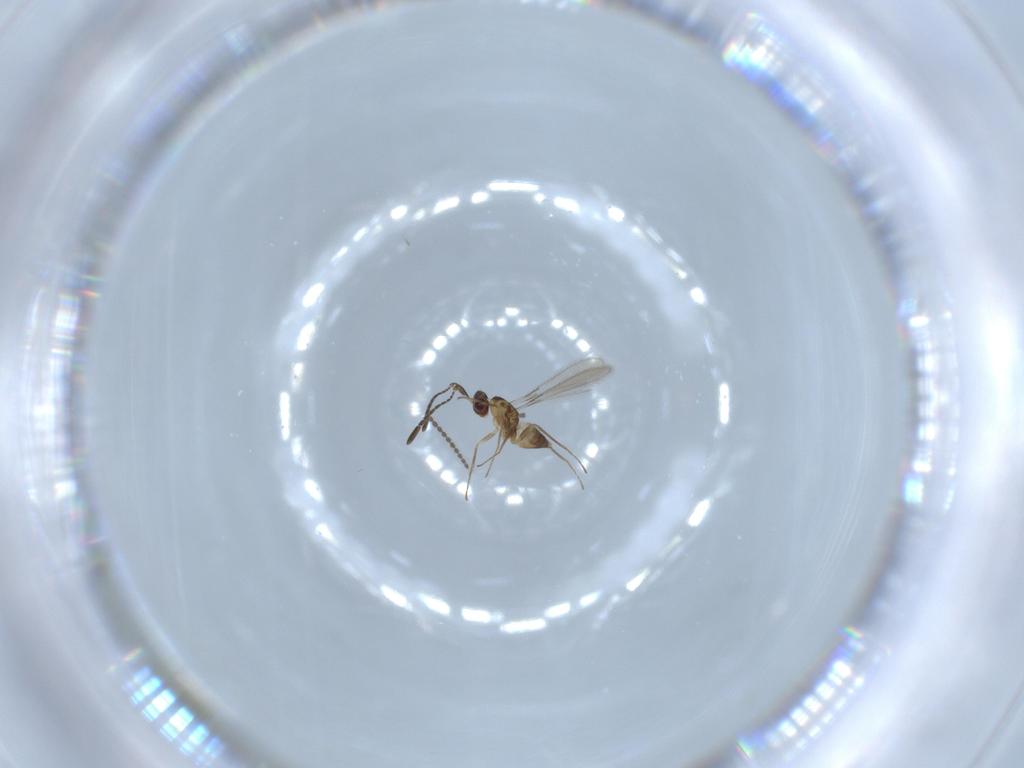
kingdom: Animalia
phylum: Arthropoda
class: Insecta
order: Hymenoptera
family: Mymaridae
